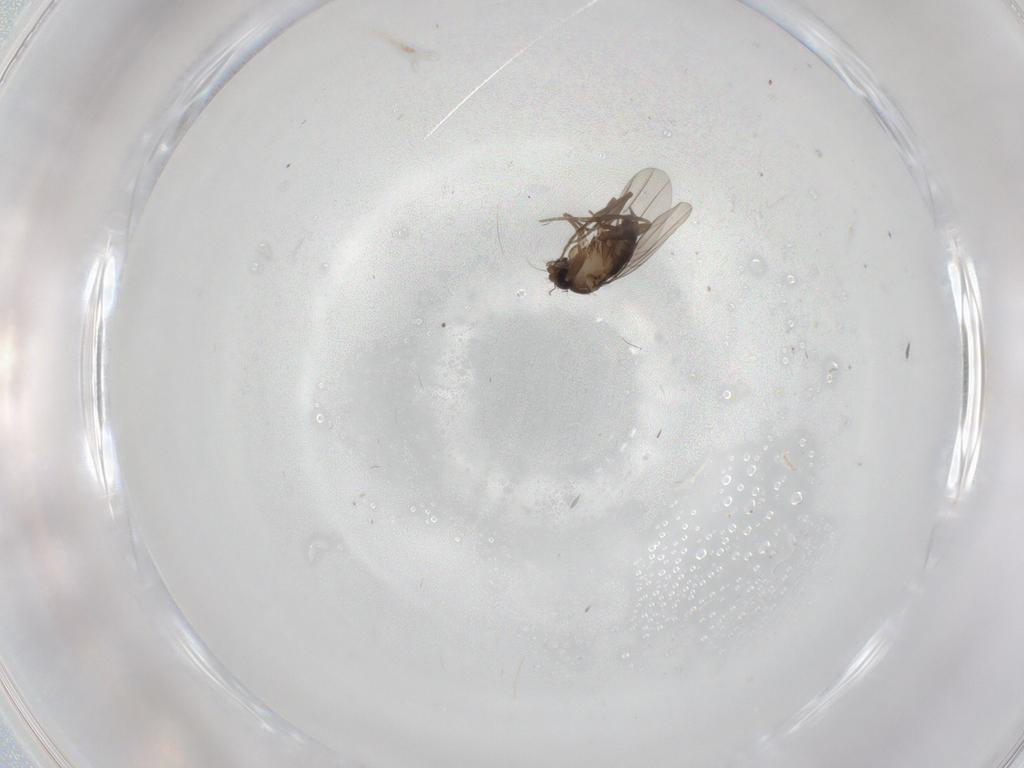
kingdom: Animalia
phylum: Arthropoda
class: Insecta
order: Diptera
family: Phoridae
